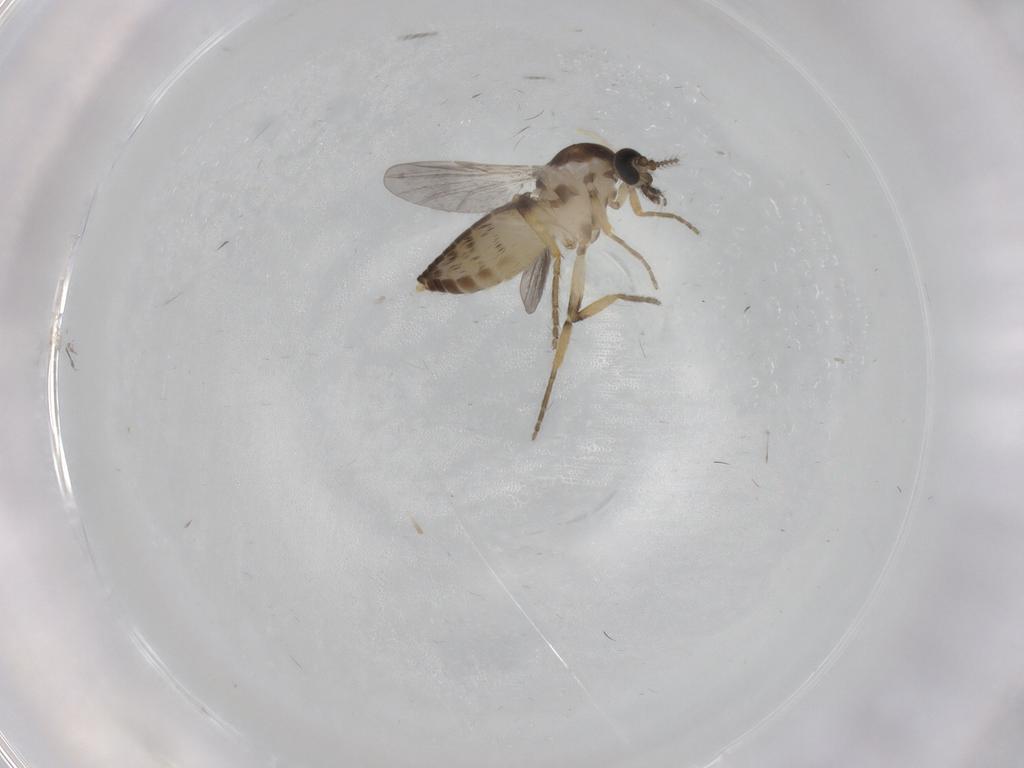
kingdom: Animalia
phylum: Arthropoda
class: Insecta
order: Diptera
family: Ceratopogonidae
